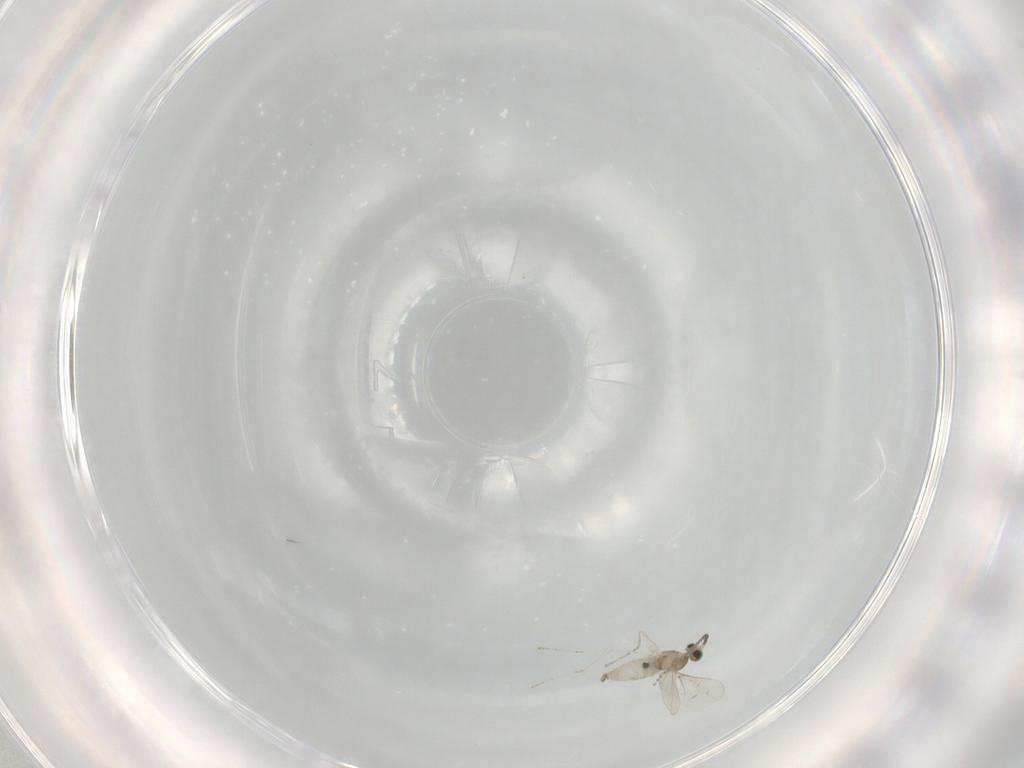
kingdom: Animalia
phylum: Arthropoda
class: Insecta
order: Diptera
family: Cecidomyiidae
